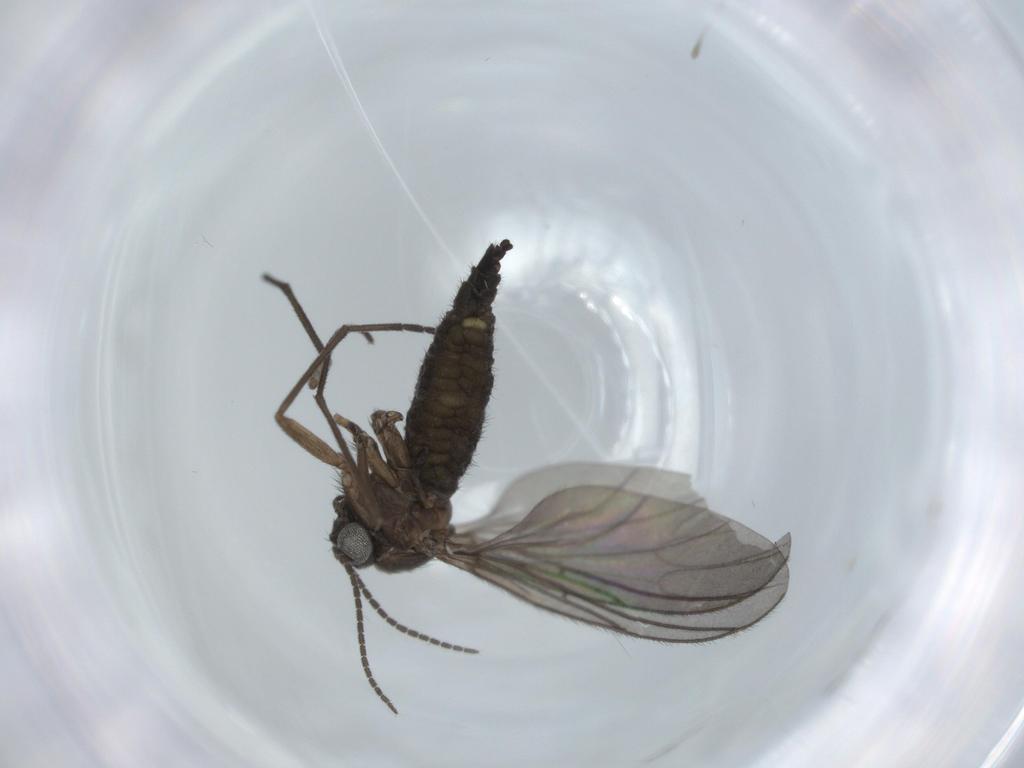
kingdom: Animalia
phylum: Arthropoda
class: Insecta
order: Diptera
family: Sciaridae
